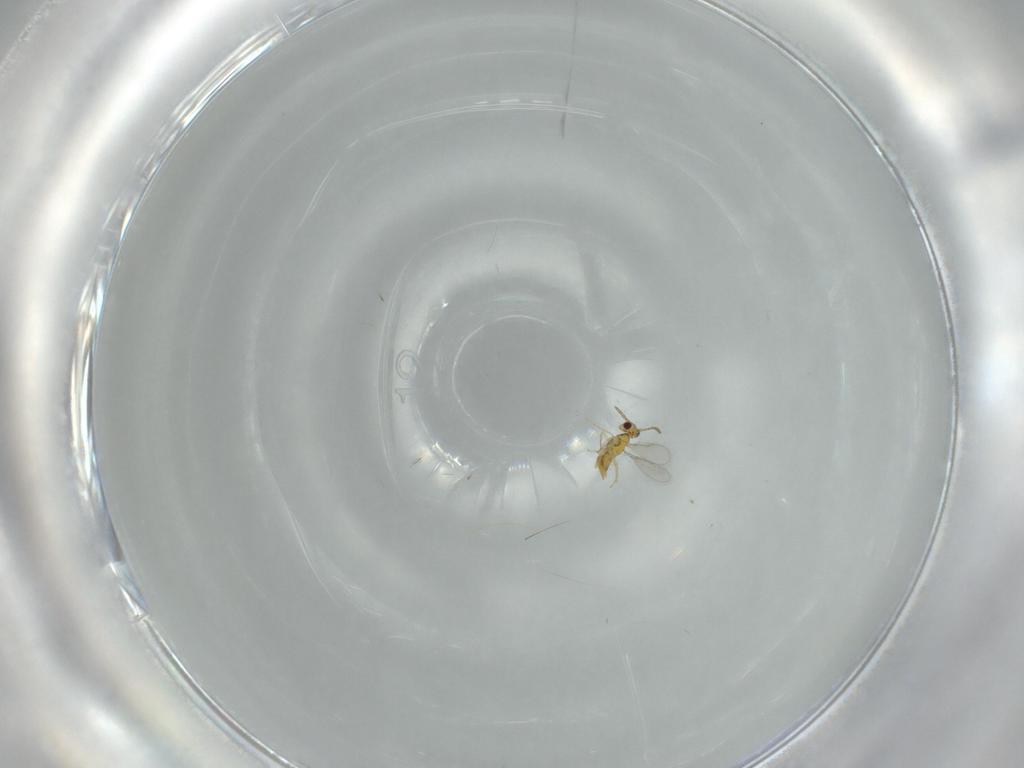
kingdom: Animalia
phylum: Arthropoda
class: Insecta
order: Hymenoptera
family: Aphelinidae
